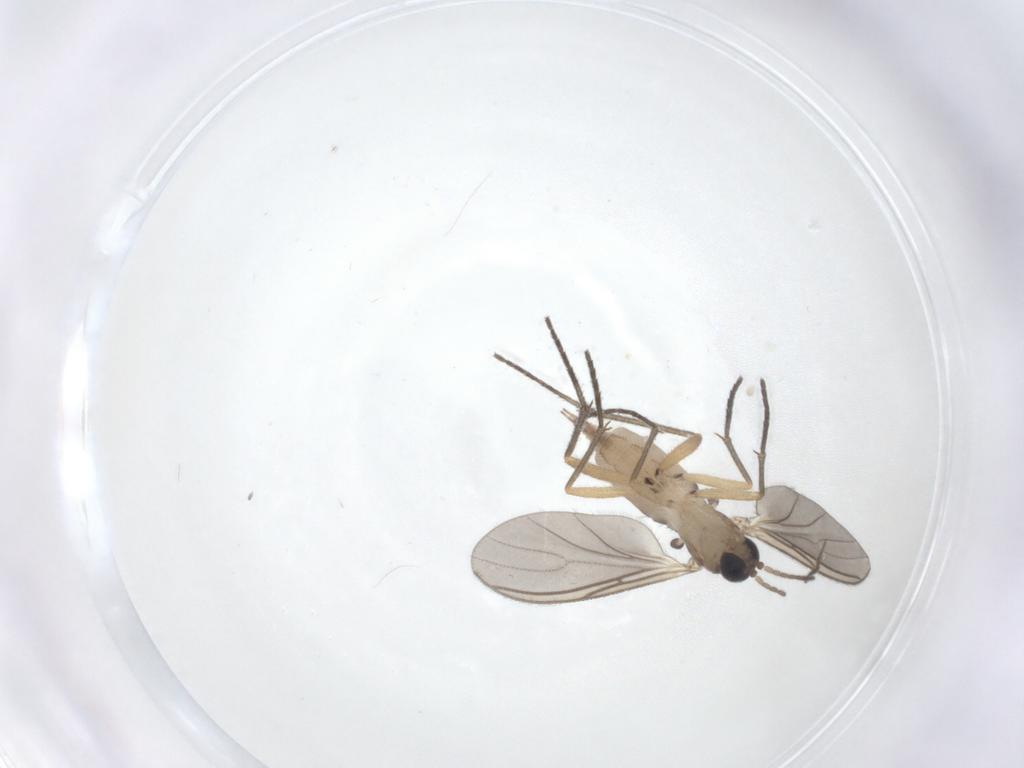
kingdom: Animalia
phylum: Arthropoda
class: Insecta
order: Diptera
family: Sciaridae
